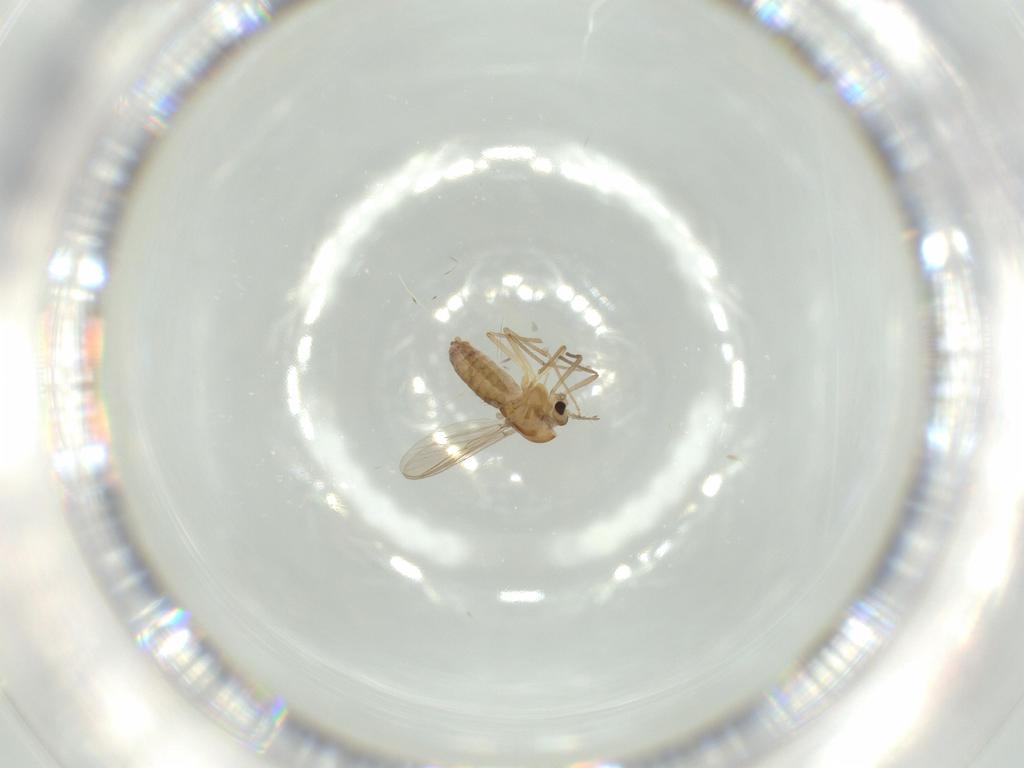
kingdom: Animalia
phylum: Arthropoda
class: Insecta
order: Diptera
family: Chironomidae
